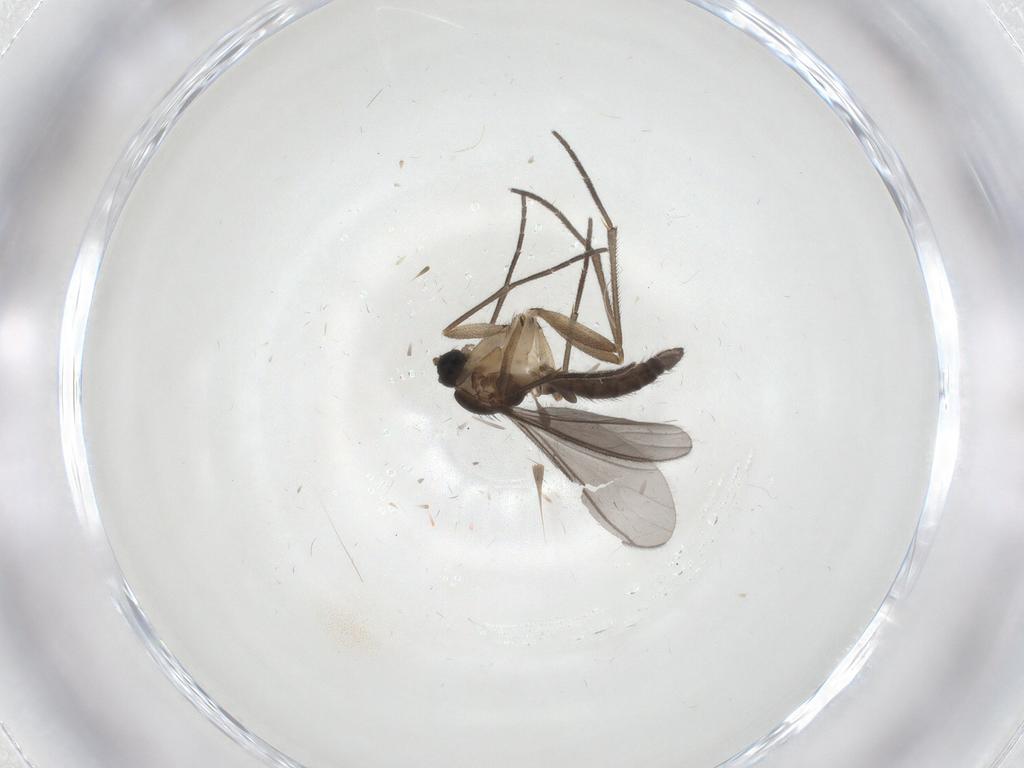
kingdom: Animalia
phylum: Arthropoda
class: Insecta
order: Diptera
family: Sciaridae
